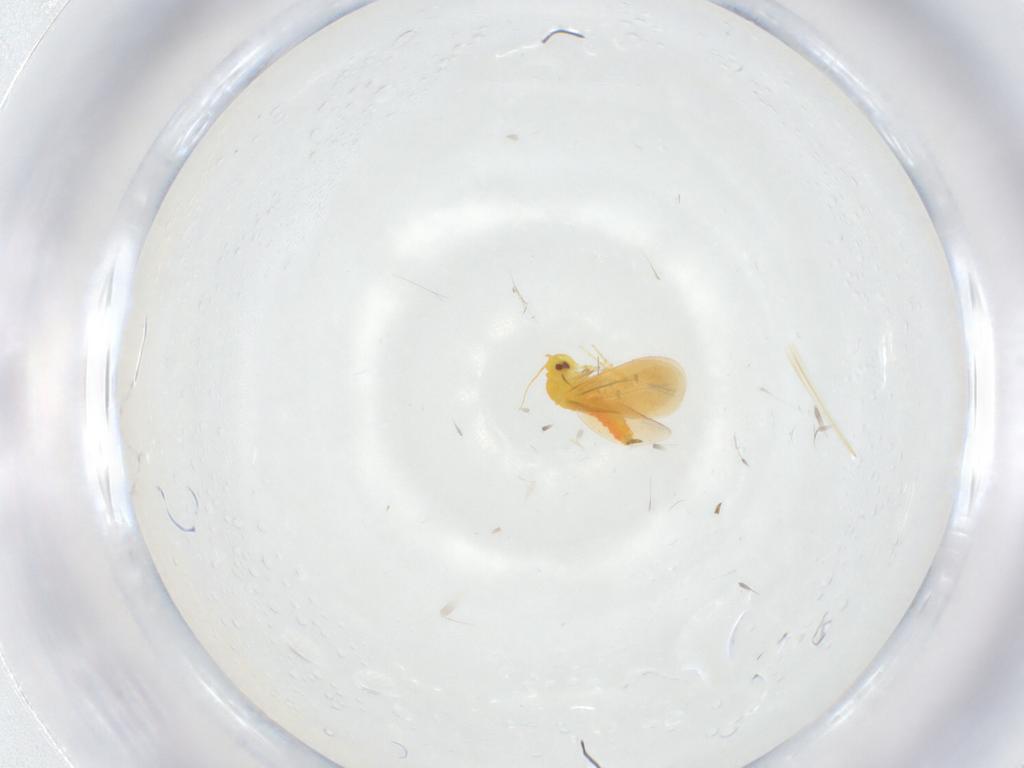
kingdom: Animalia
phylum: Arthropoda
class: Insecta
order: Hemiptera
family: Aleyrodidae
